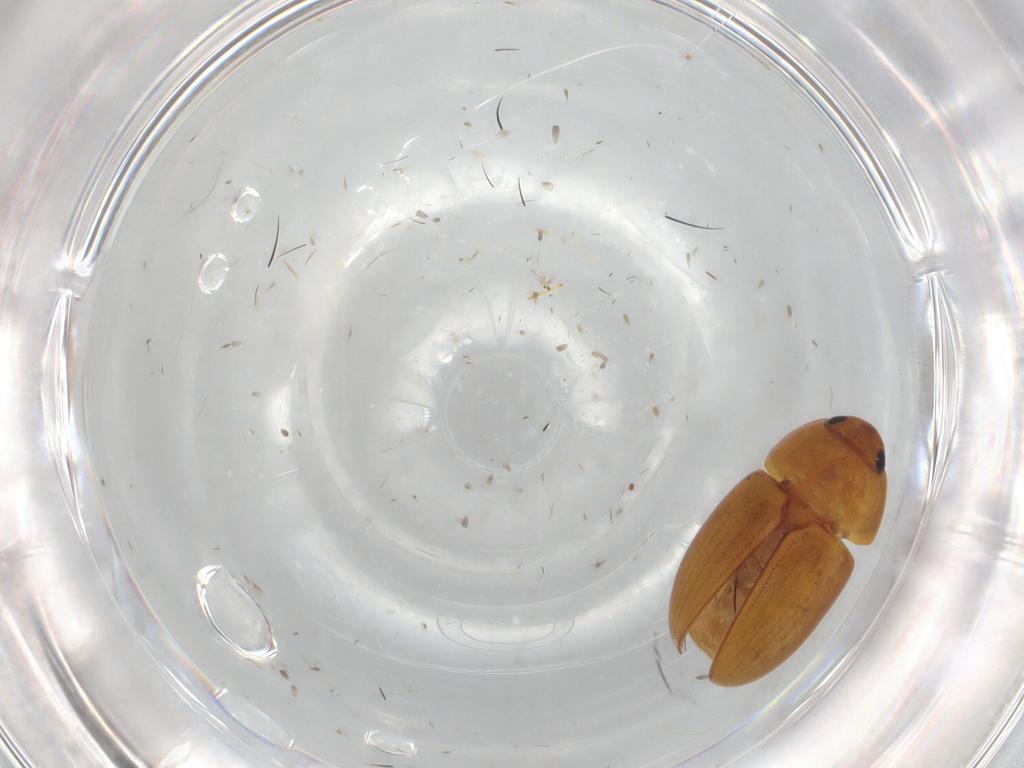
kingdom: Animalia
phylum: Arthropoda
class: Insecta
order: Coleoptera
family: Phalacridae
